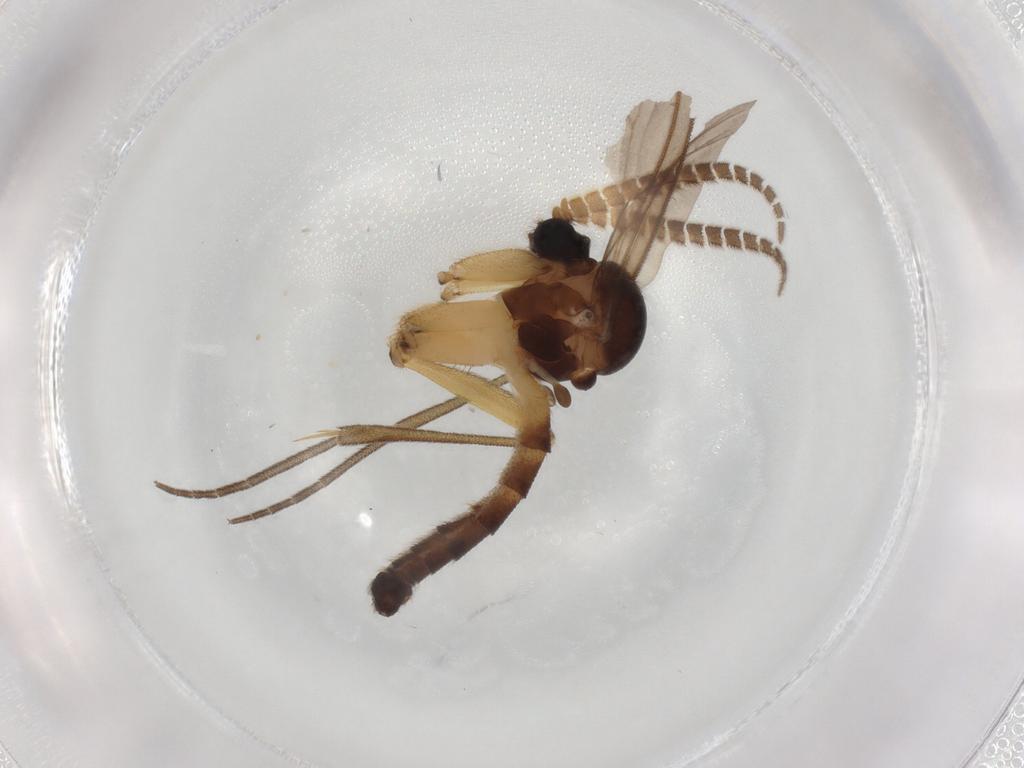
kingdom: Animalia
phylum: Arthropoda
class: Insecta
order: Diptera
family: Mycetophilidae
